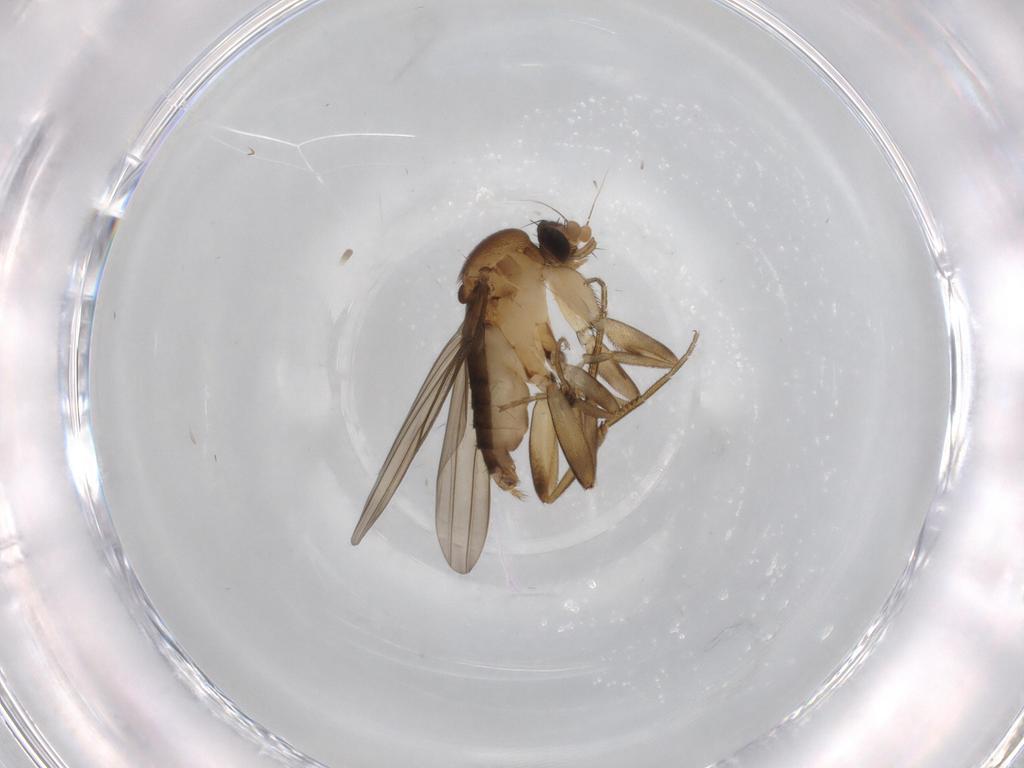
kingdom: Animalia
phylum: Arthropoda
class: Insecta
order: Diptera
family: Phoridae
